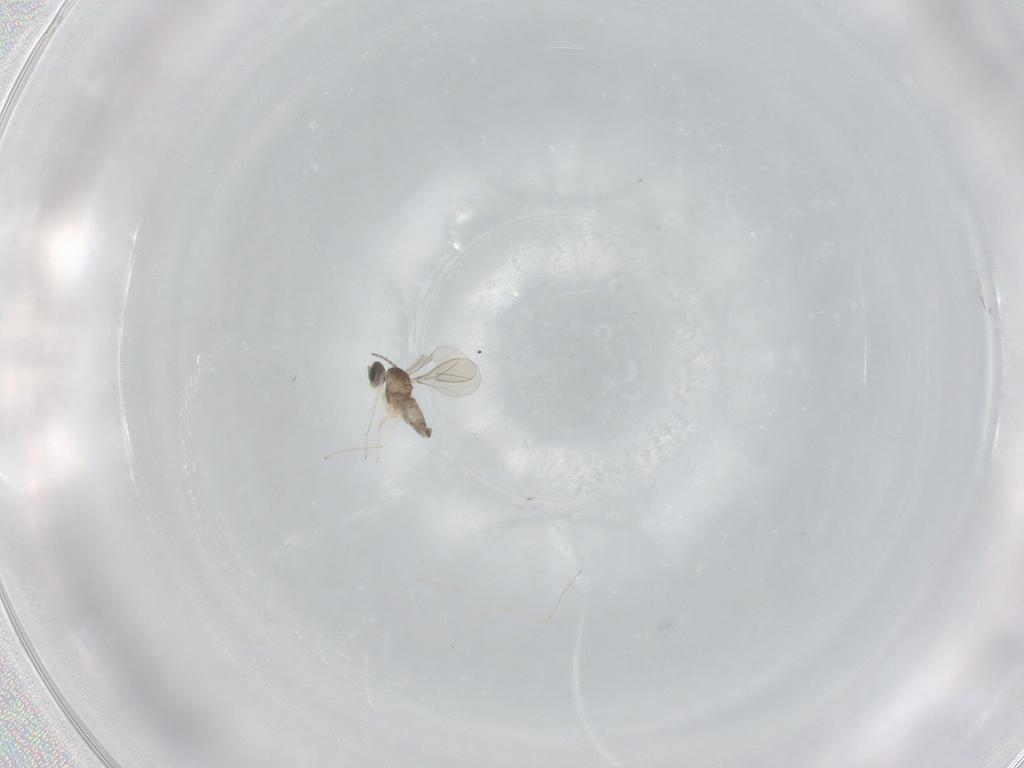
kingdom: Animalia
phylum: Arthropoda
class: Insecta
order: Diptera
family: Cecidomyiidae
